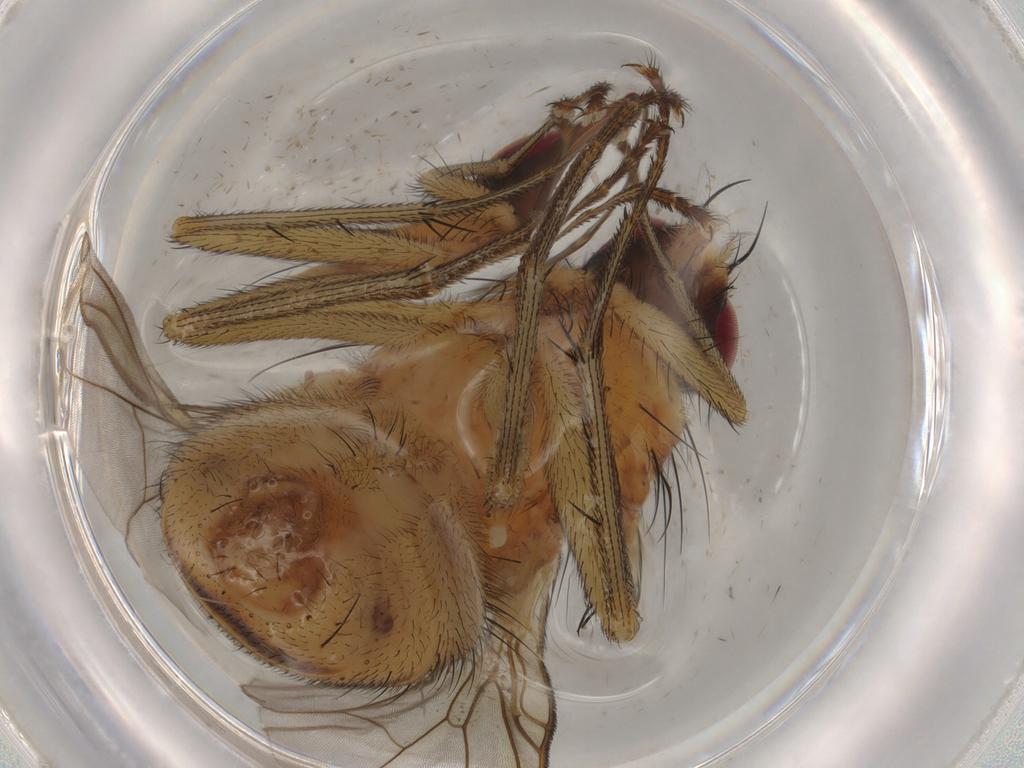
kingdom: Animalia
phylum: Arthropoda
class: Insecta
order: Diptera
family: Muscidae
